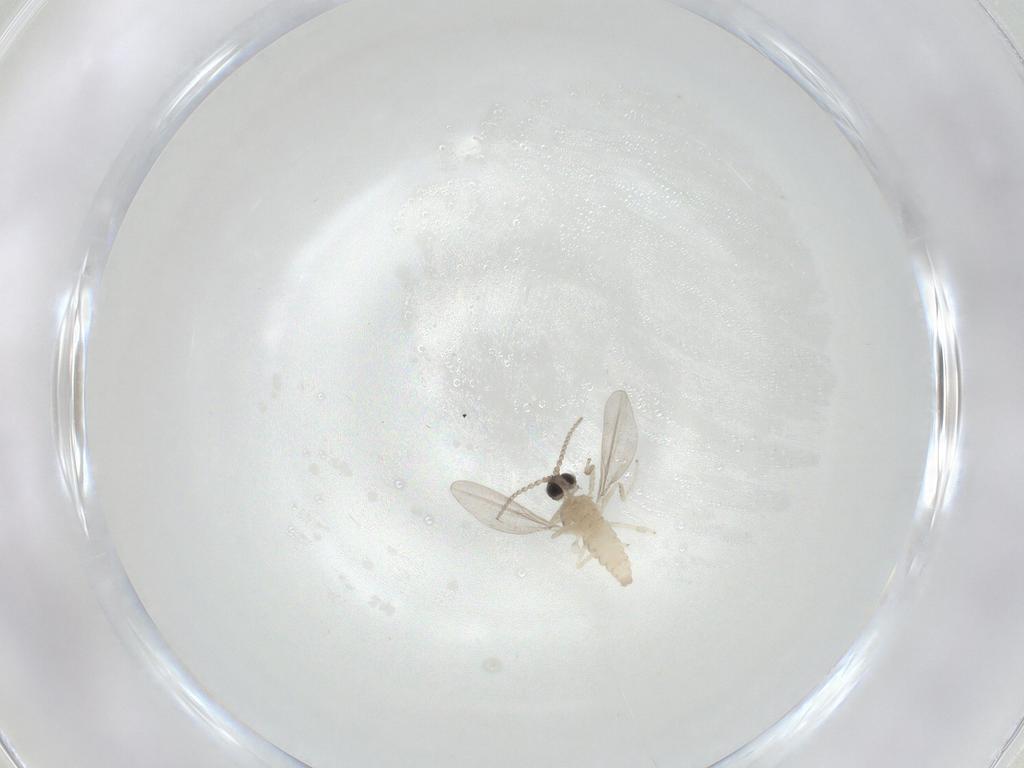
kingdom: Animalia
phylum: Arthropoda
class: Insecta
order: Diptera
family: Cecidomyiidae
